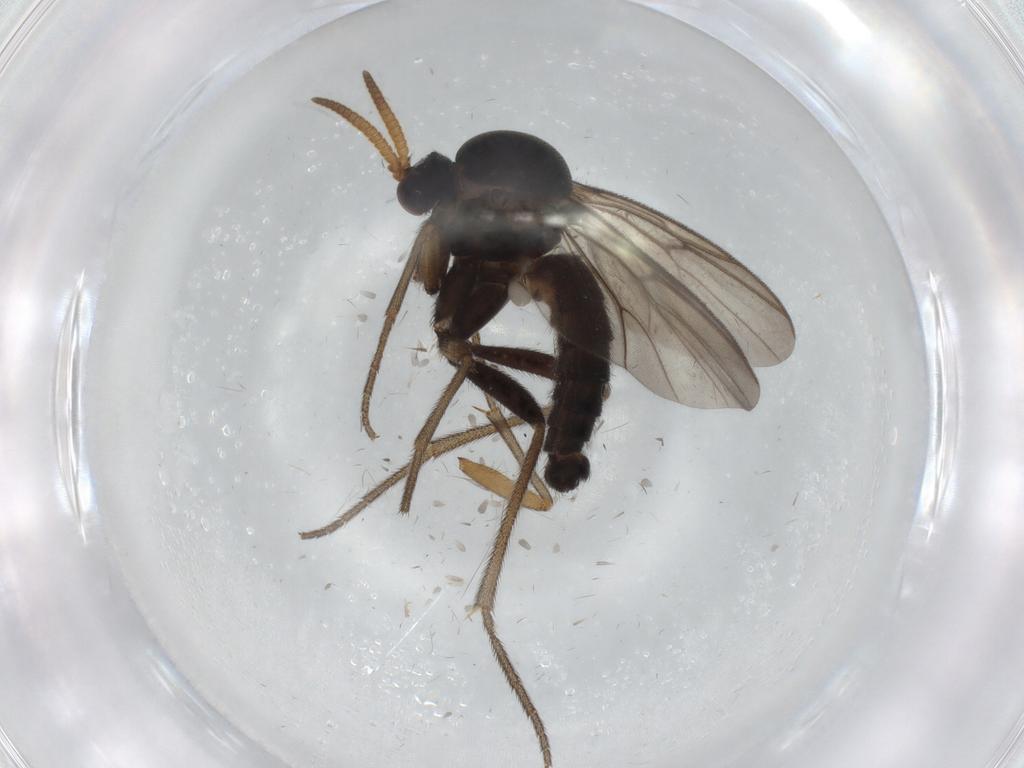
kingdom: Animalia
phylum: Arthropoda
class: Insecta
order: Diptera
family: Mycetophilidae
